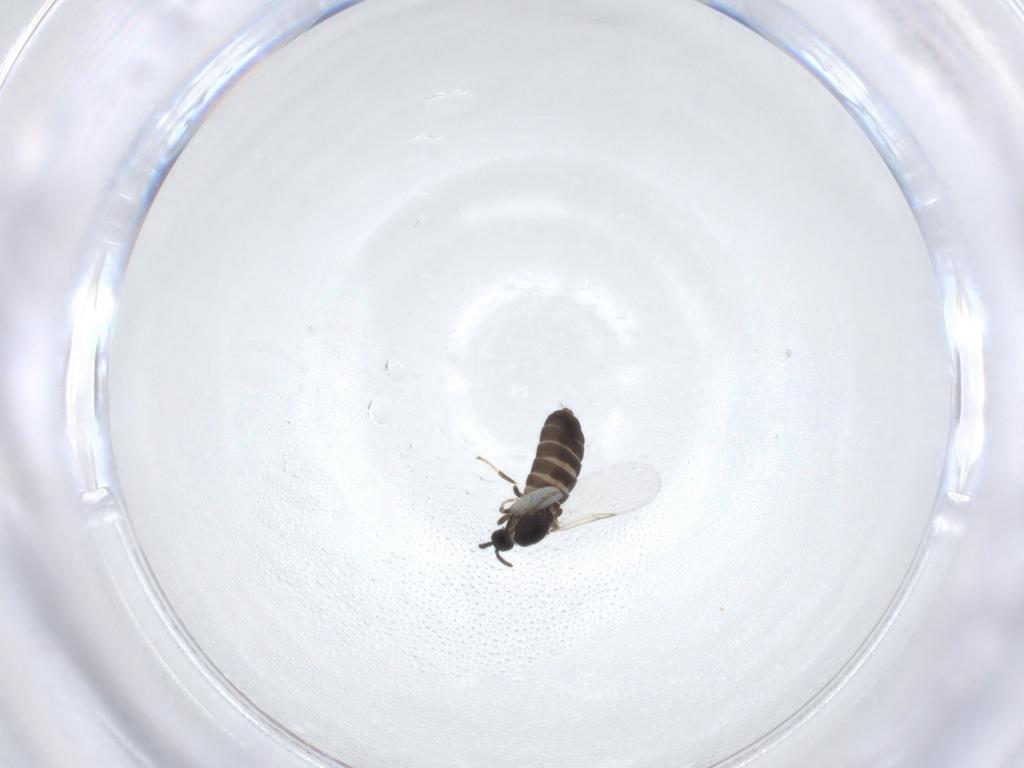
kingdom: Animalia
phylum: Arthropoda
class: Insecta
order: Diptera
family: Scatopsidae
